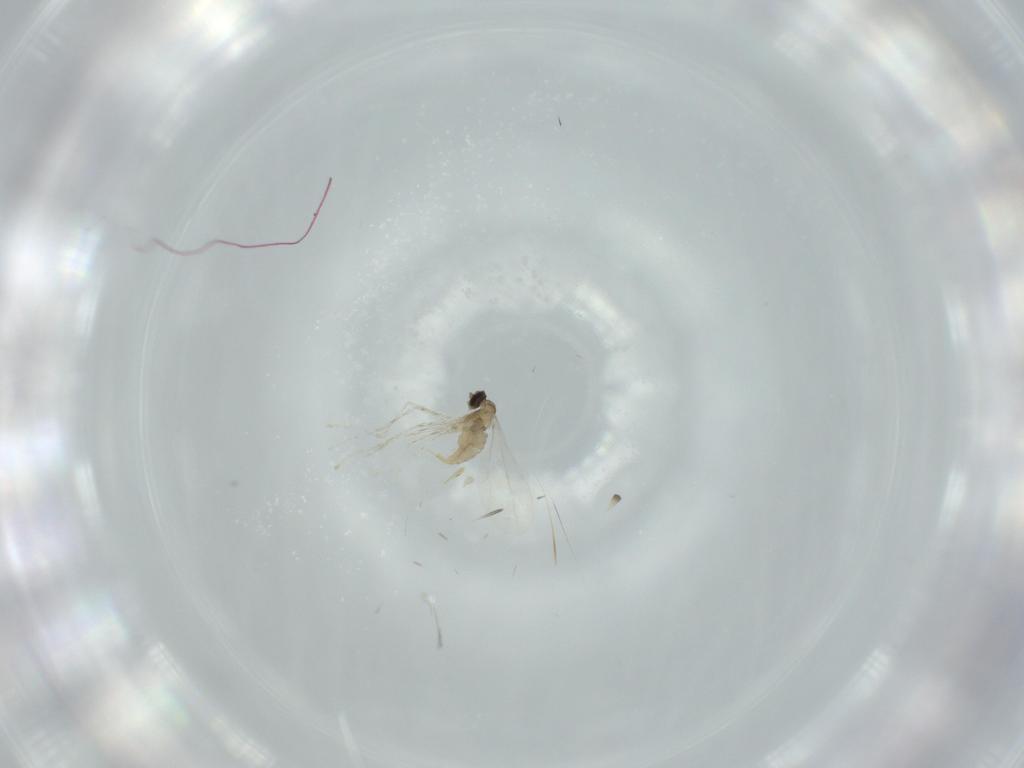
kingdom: Animalia
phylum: Arthropoda
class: Insecta
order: Diptera
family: Cecidomyiidae
